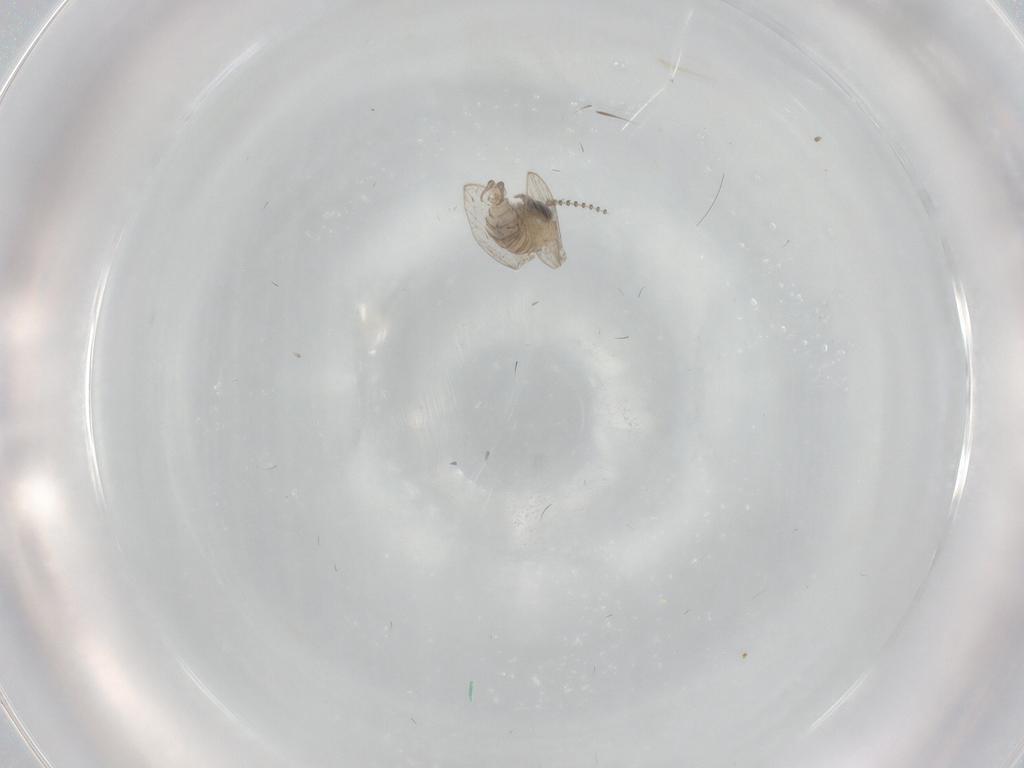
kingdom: Animalia
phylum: Arthropoda
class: Insecta
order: Diptera
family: Psychodidae
